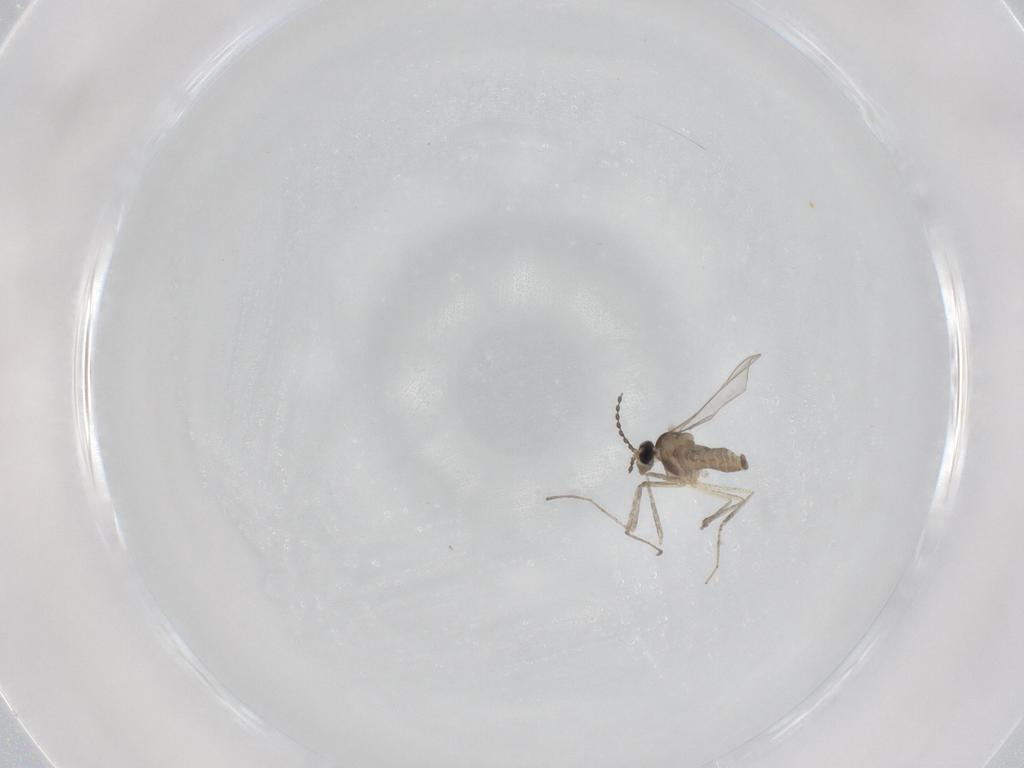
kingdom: Animalia
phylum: Arthropoda
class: Insecta
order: Diptera
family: Cecidomyiidae
